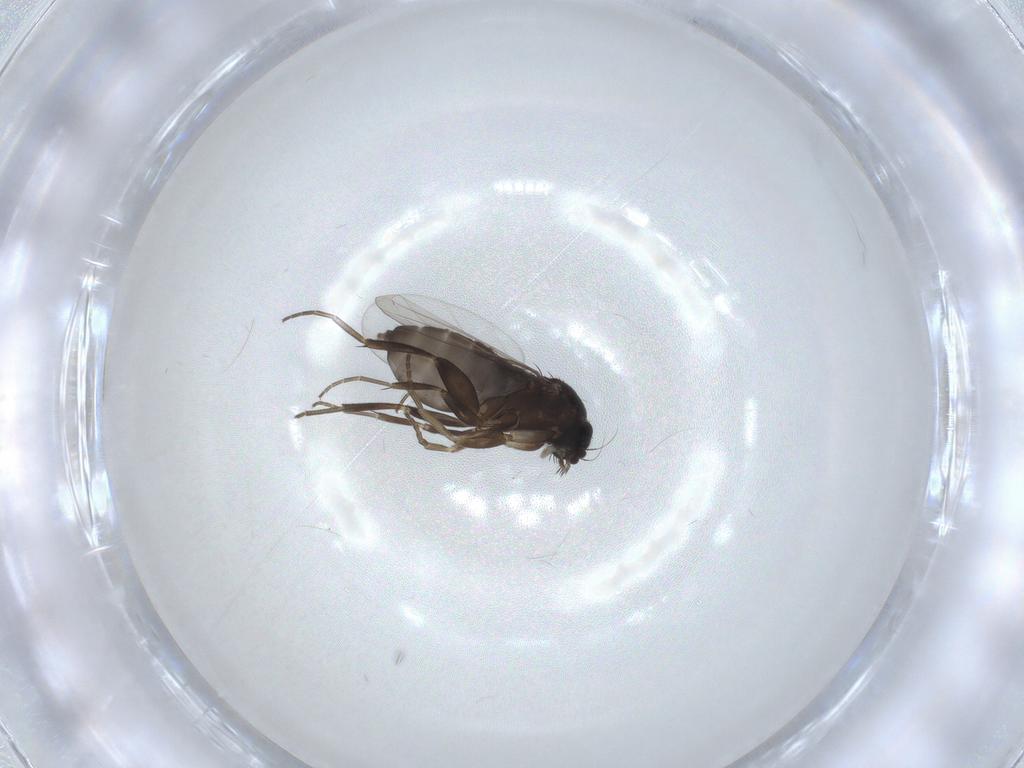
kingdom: Animalia
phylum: Arthropoda
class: Insecta
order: Diptera
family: Phoridae
